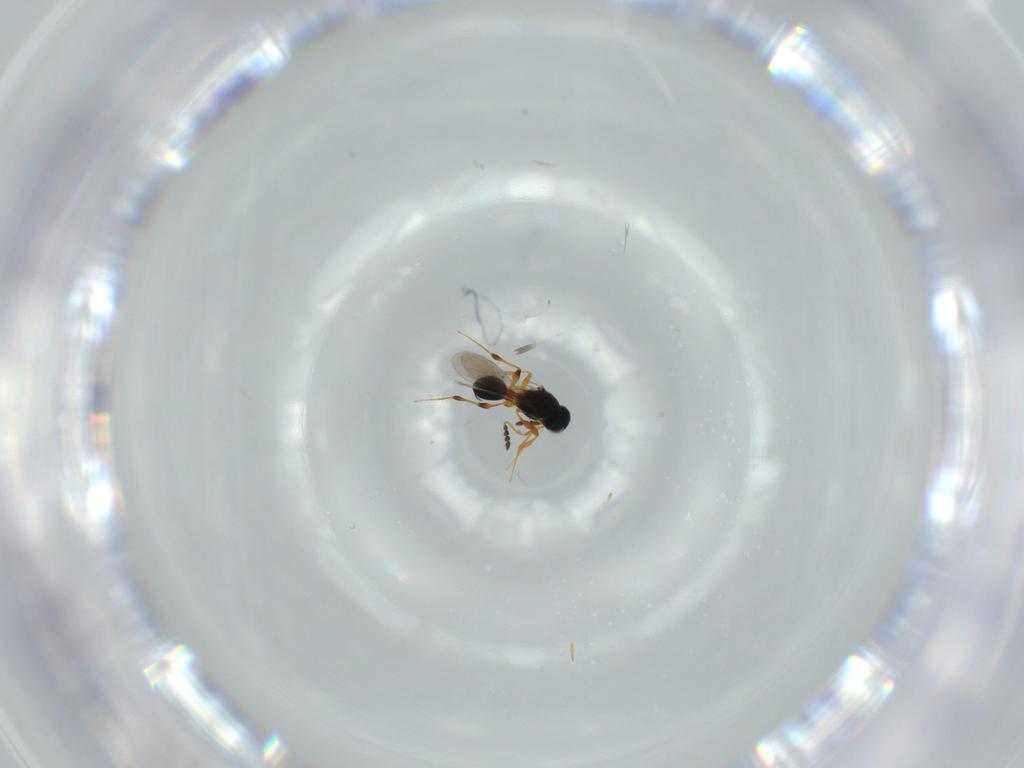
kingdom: Animalia
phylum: Arthropoda
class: Insecta
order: Hymenoptera
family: Platygastridae
